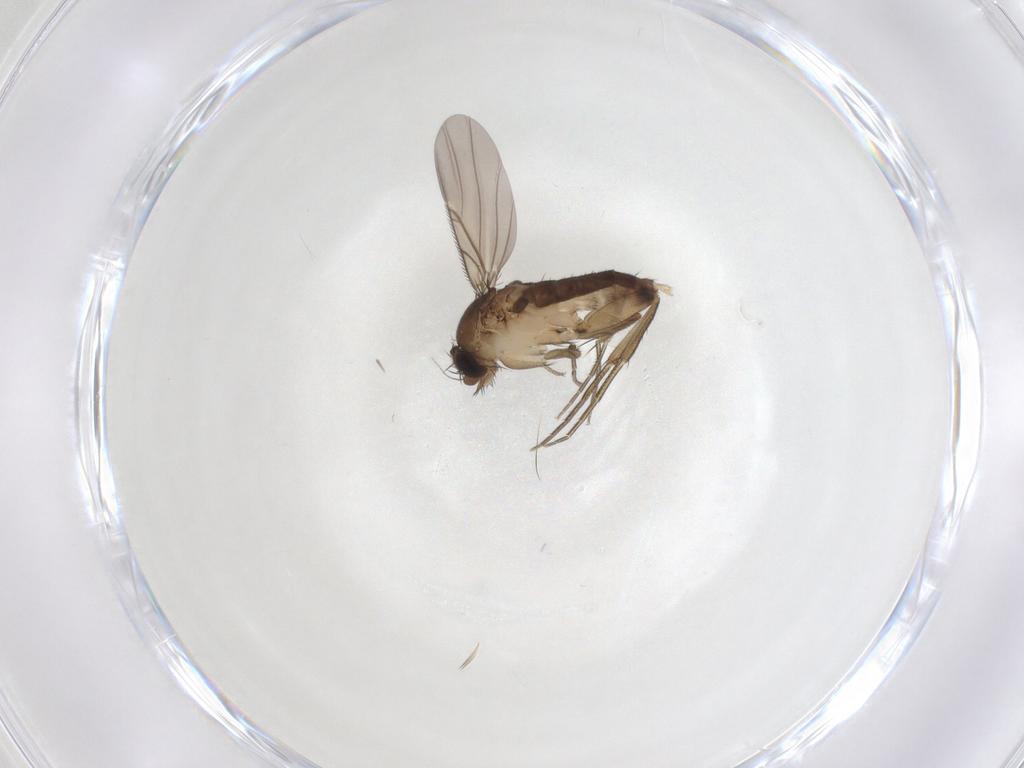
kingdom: Animalia
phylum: Arthropoda
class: Insecta
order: Diptera
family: Phoridae
